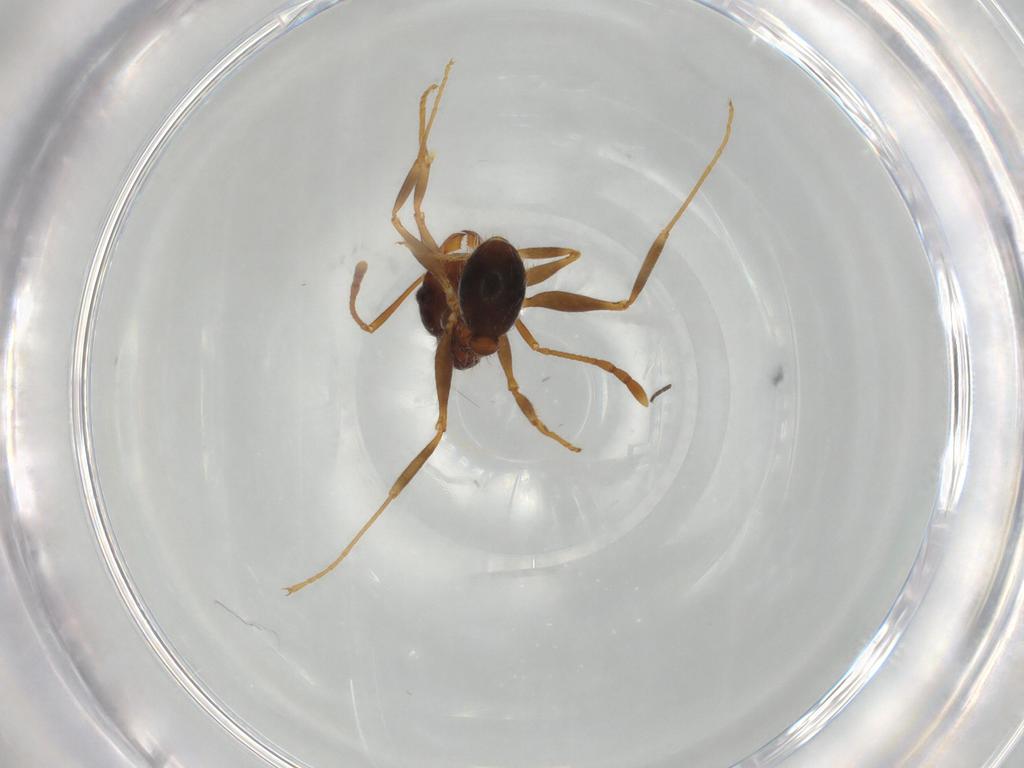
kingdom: Animalia
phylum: Arthropoda
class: Insecta
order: Hymenoptera
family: Formicidae
